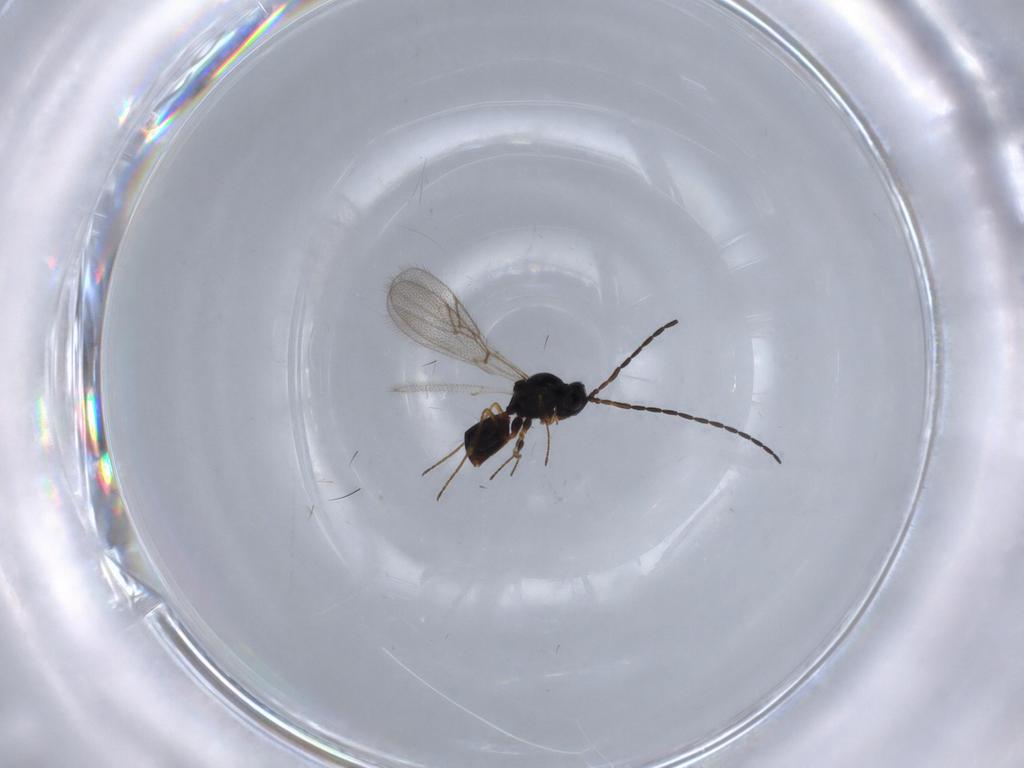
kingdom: Animalia
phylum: Arthropoda
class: Insecta
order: Hymenoptera
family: Figitidae
